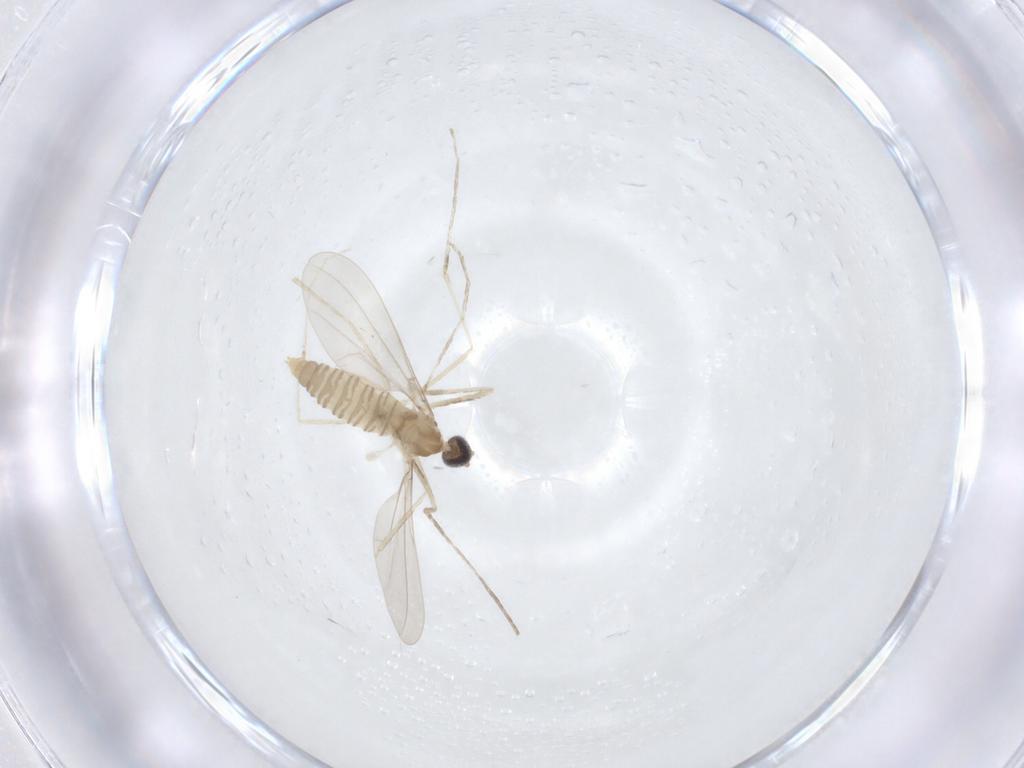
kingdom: Animalia
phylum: Arthropoda
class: Insecta
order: Diptera
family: Cecidomyiidae
